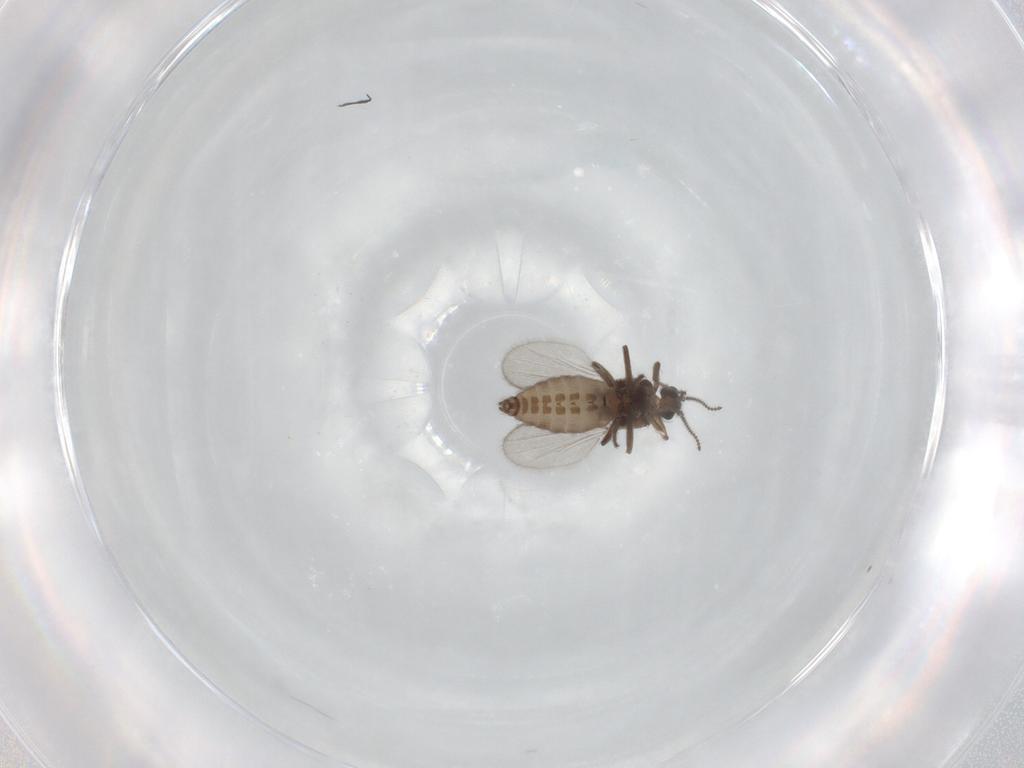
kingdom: Animalia
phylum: Arthropoda
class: Insecta
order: Diptera
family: Ceratopogonidae
